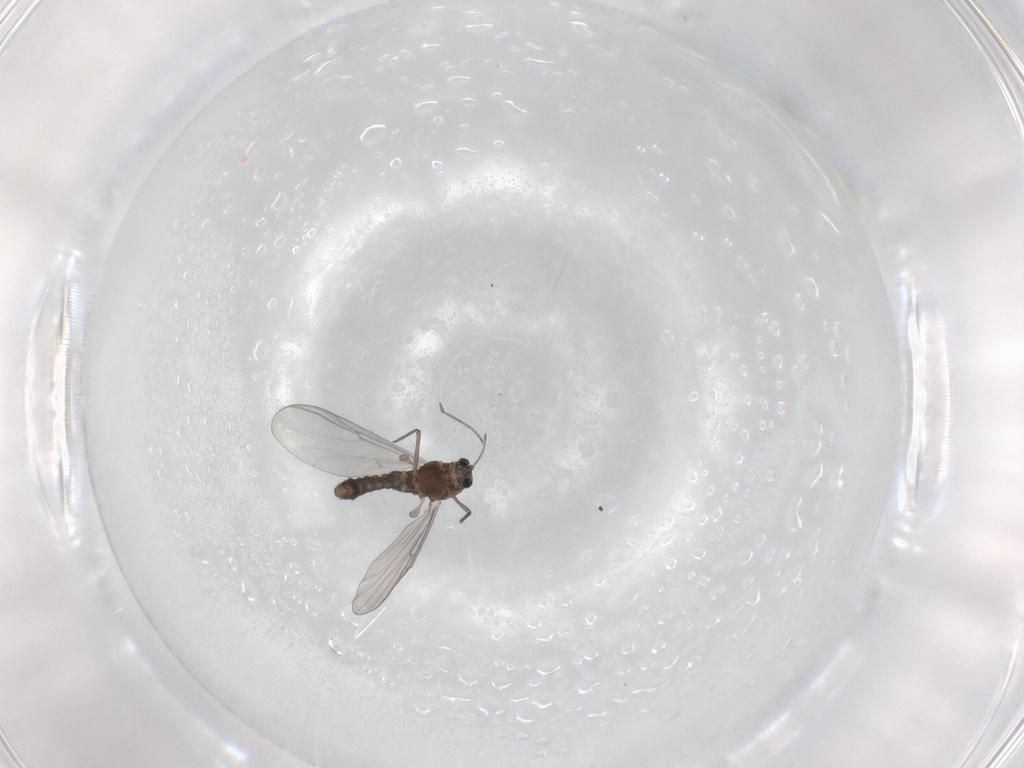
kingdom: Animalia
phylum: Arthropoda
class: Insecta
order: Diptera
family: Chironomidae
